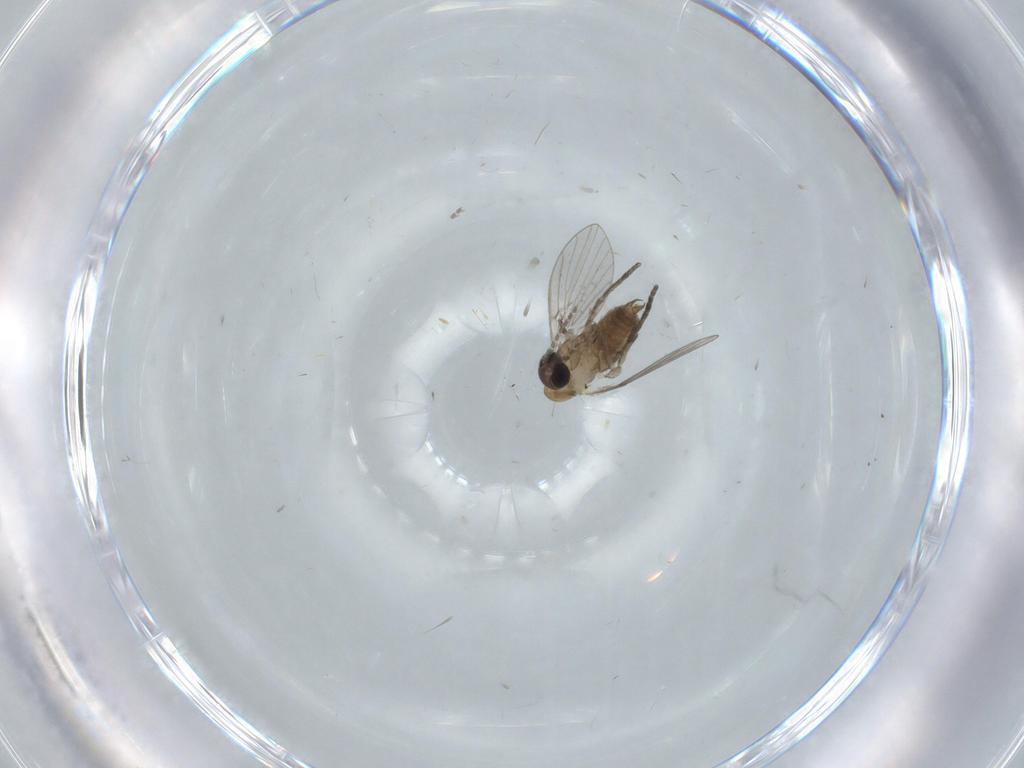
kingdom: Animalia
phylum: Arthropoda
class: Insecta
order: Diptera
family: Psychodidae
